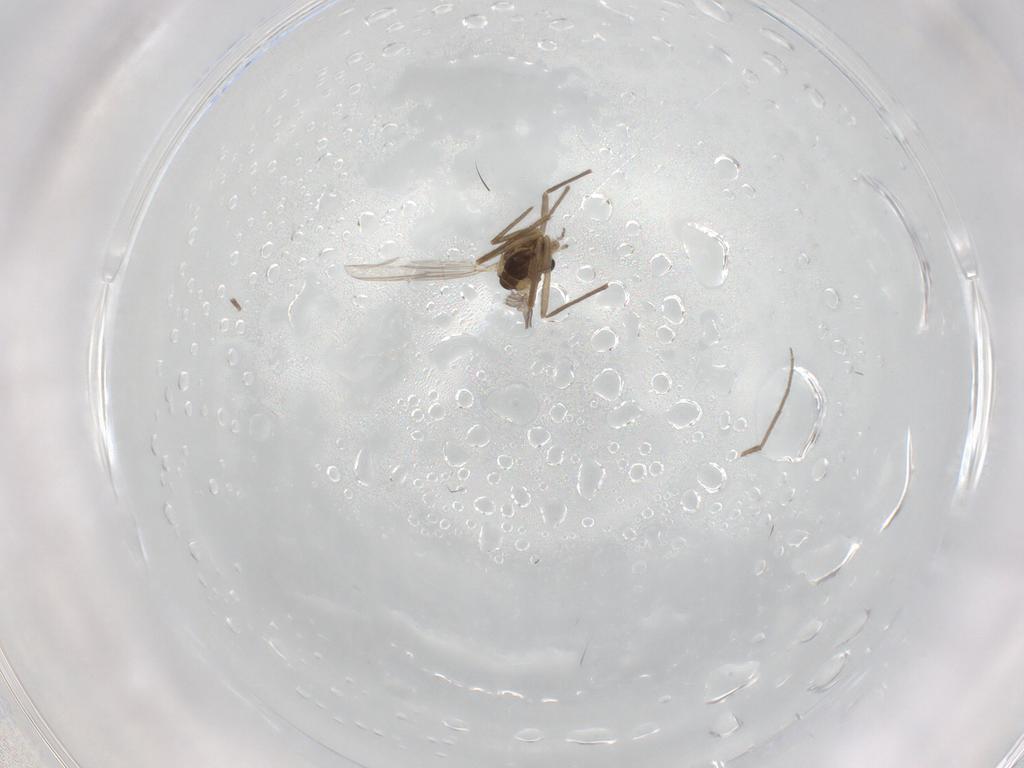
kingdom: Animalia
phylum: Arthropoda
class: Insecta
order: Diptera
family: Chironomidae
